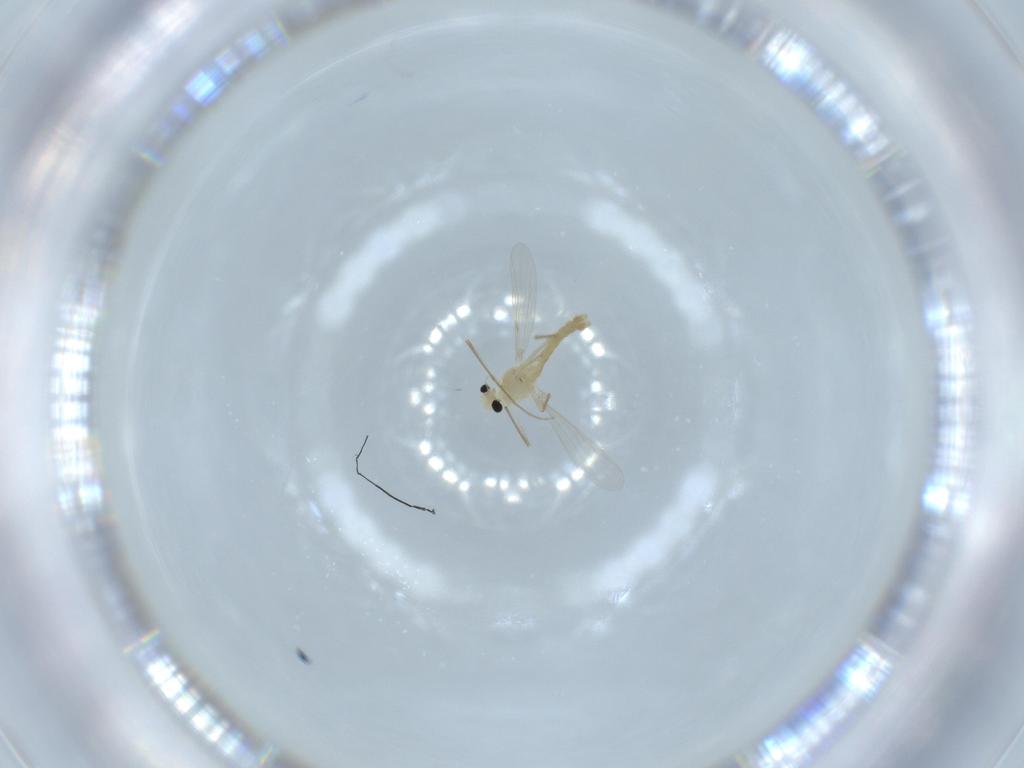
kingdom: Animalia
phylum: Arthropoda
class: Insecta
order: Diptera
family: Chironomidae
